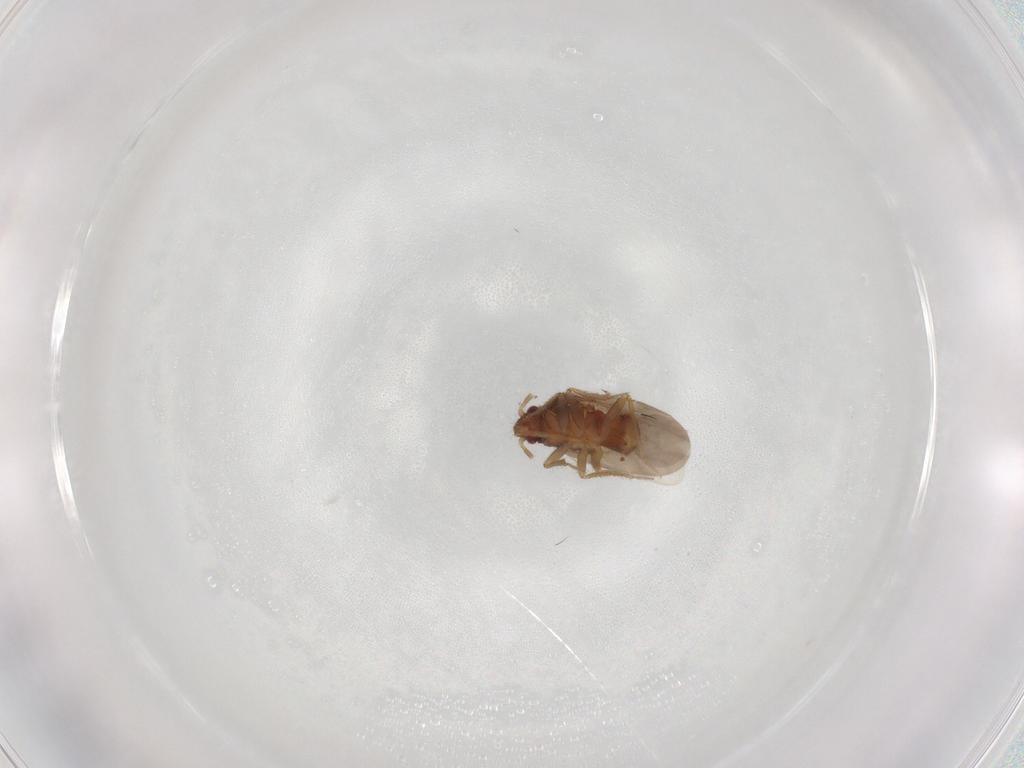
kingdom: Animalia
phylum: Arthropoda
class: Insecta
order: Hemiptera
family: Ceratocombidae
